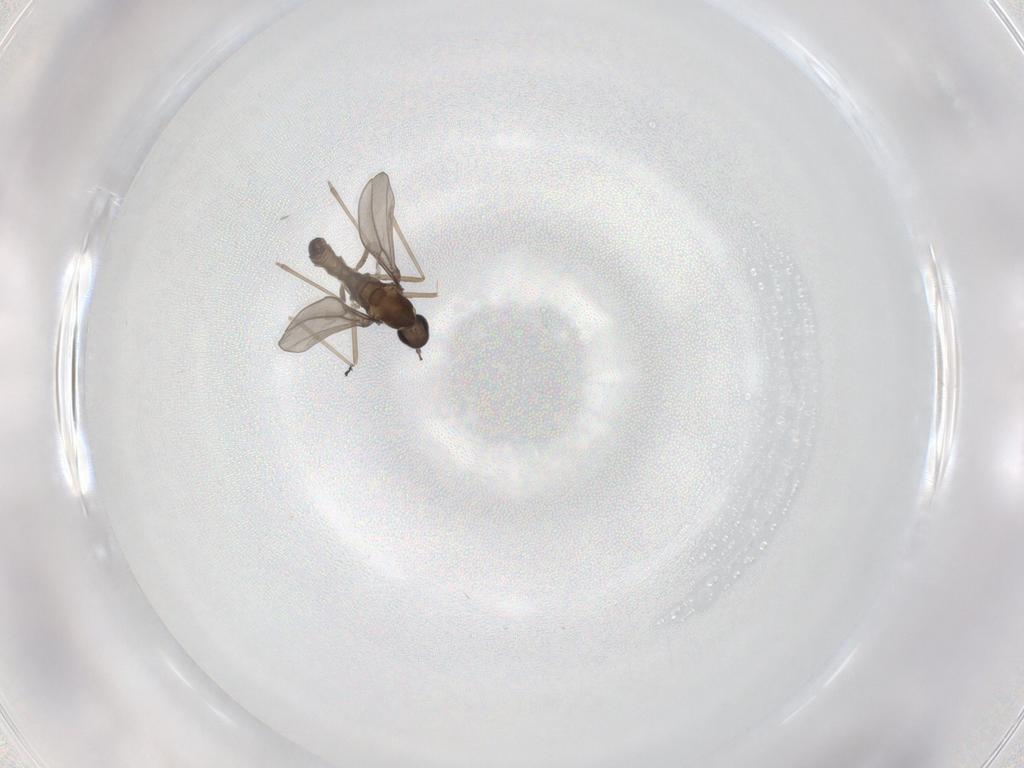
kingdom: Animalia
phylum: Arthropoda
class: Insecta
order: Diptera
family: Cecidomyiidae
